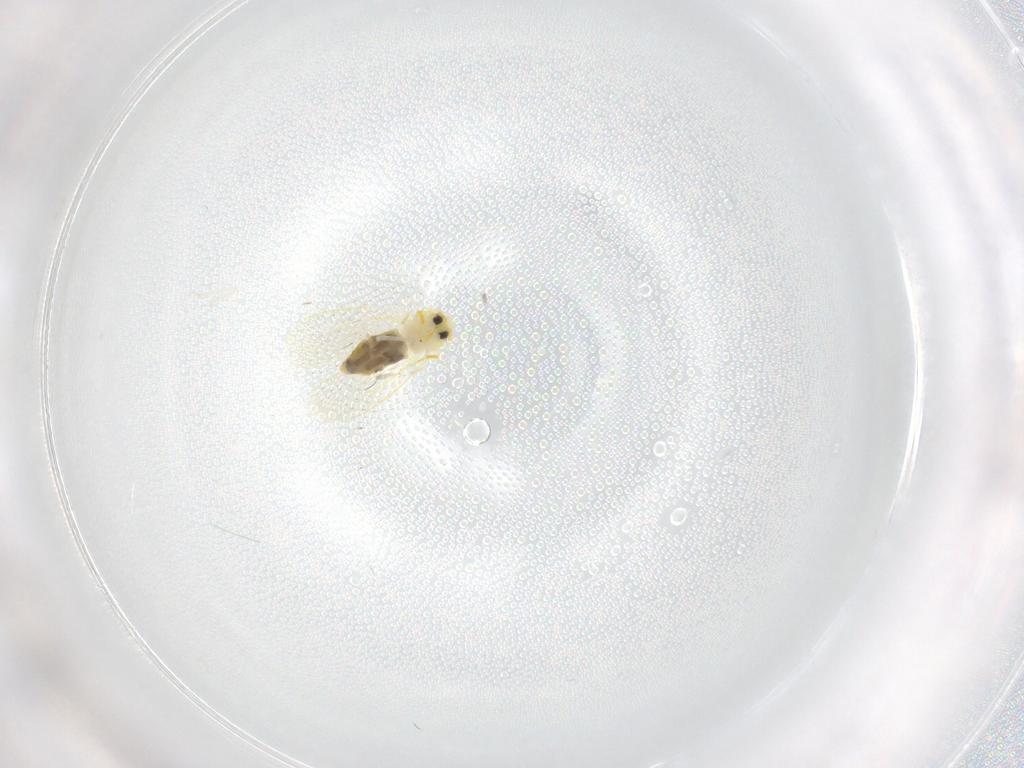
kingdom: Animalia
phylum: Arthropoda
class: Insecta
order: Hemiptera
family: Aleyrodidae
